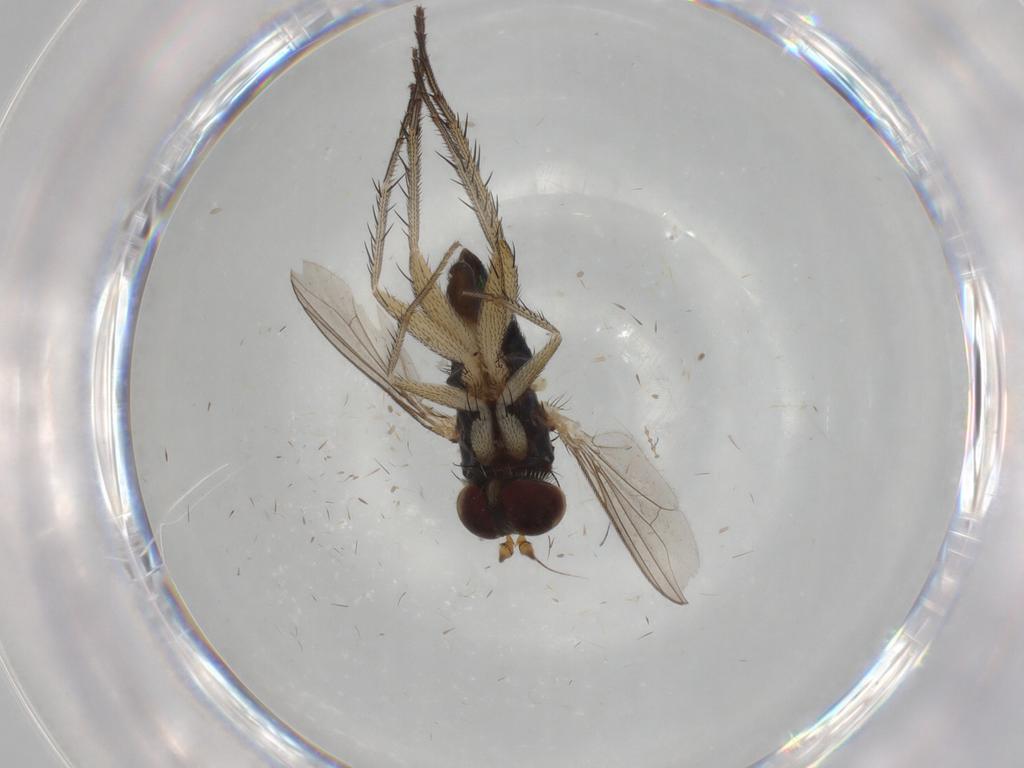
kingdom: Animalia
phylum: Arthropoda
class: Insecta
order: Diptera
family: Dolichopodidae
